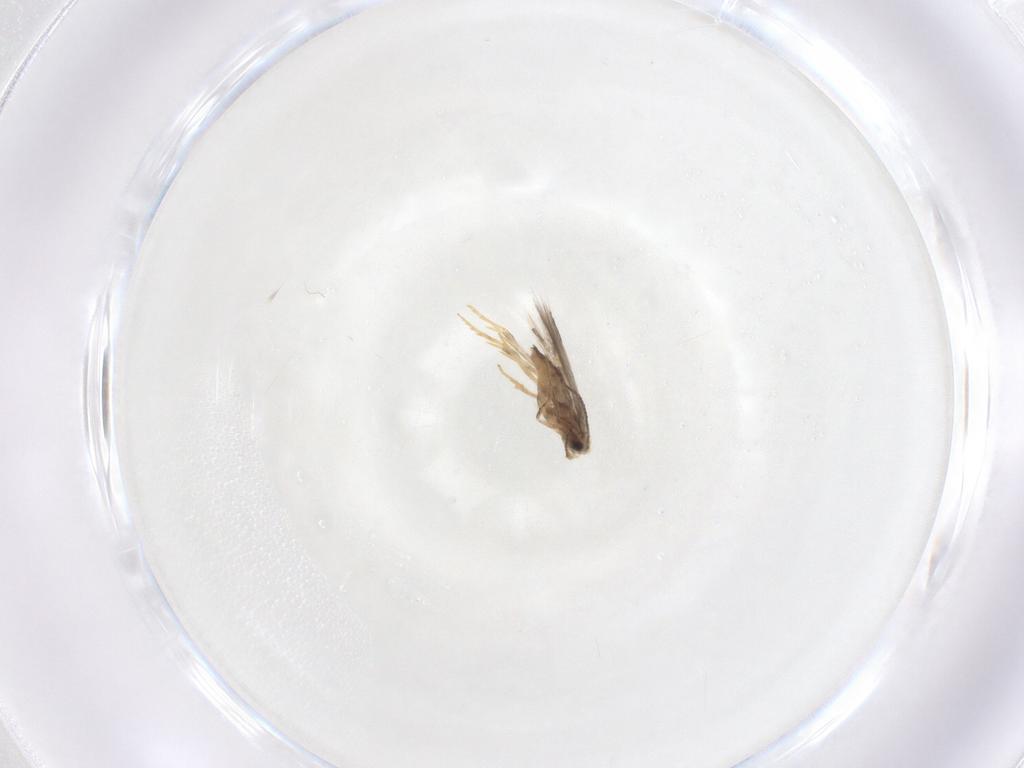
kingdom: Animalia
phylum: Arthropoda
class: Insecta
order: Lepidoptera
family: Nepticulidae
